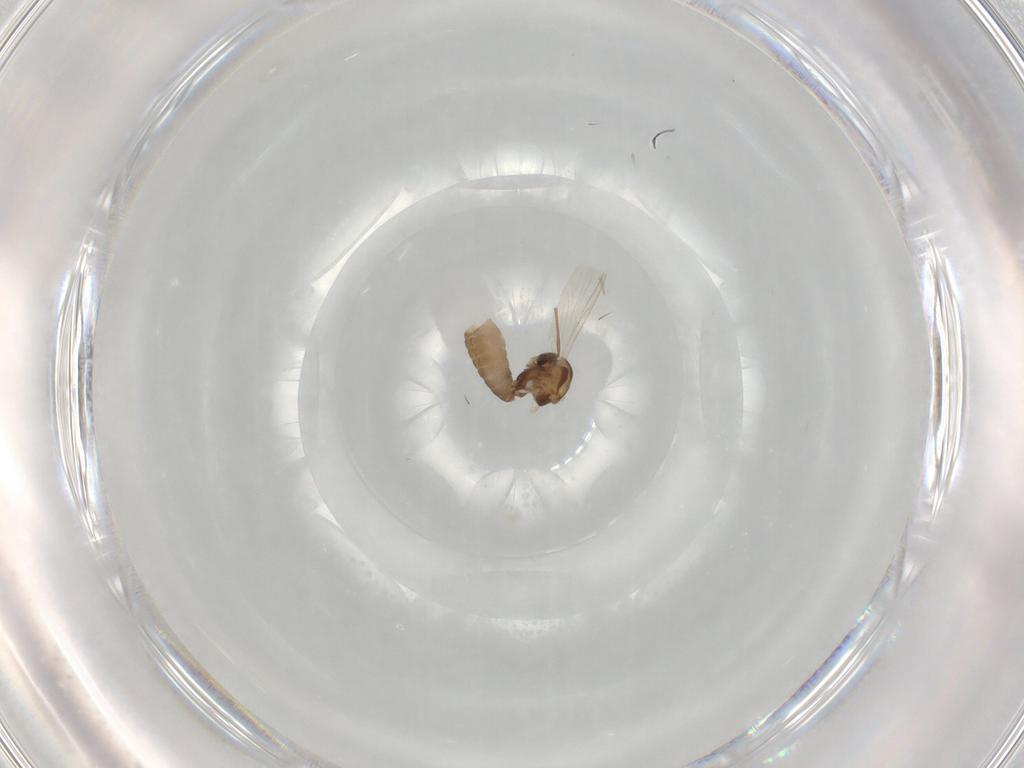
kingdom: Animalia
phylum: Arthropoda
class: Insecta
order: Diptera
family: Chironomidae
